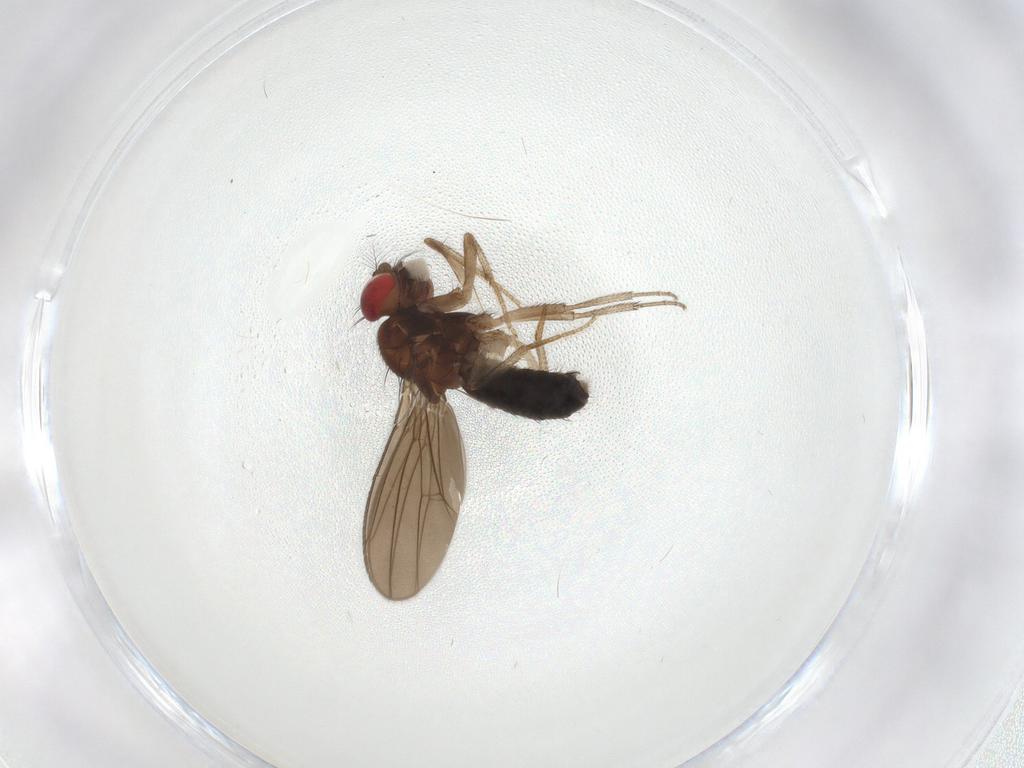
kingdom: Animalia
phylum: Arthropoda
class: Insecta
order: Diptera
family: Drosophilidae
